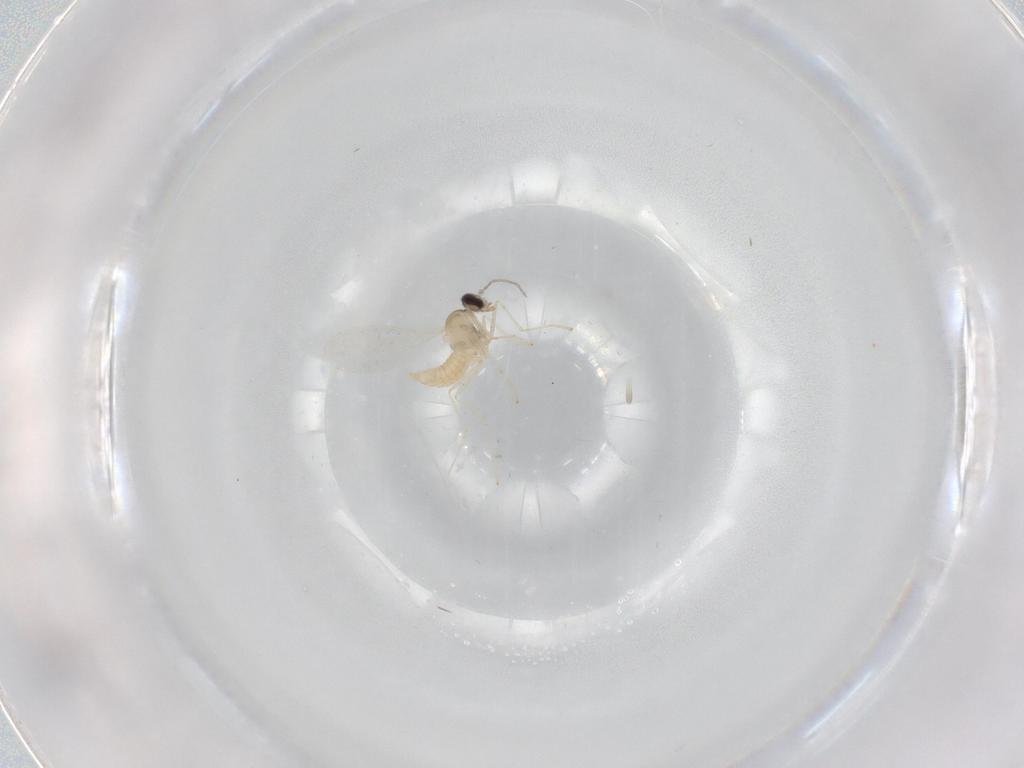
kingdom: Animalia
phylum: Arthropoda
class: Insecta
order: Diptera
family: Cecidomyiidae
